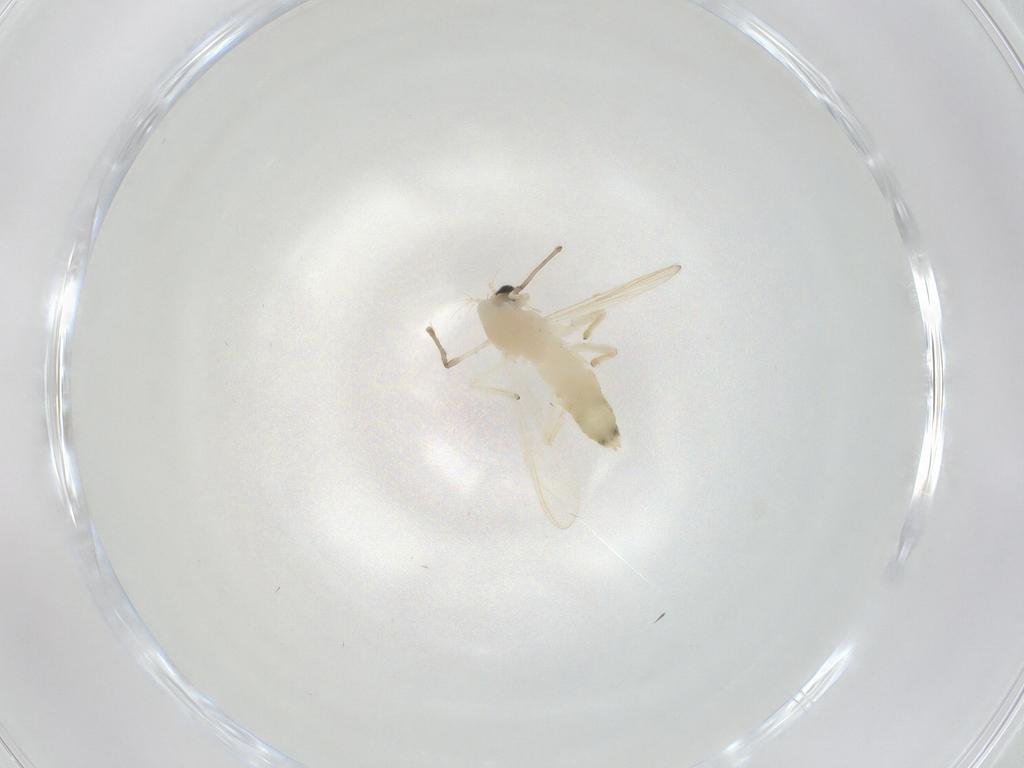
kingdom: Animalia
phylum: Arthropoda
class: Insecta
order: Diptera
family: Chironomidae
